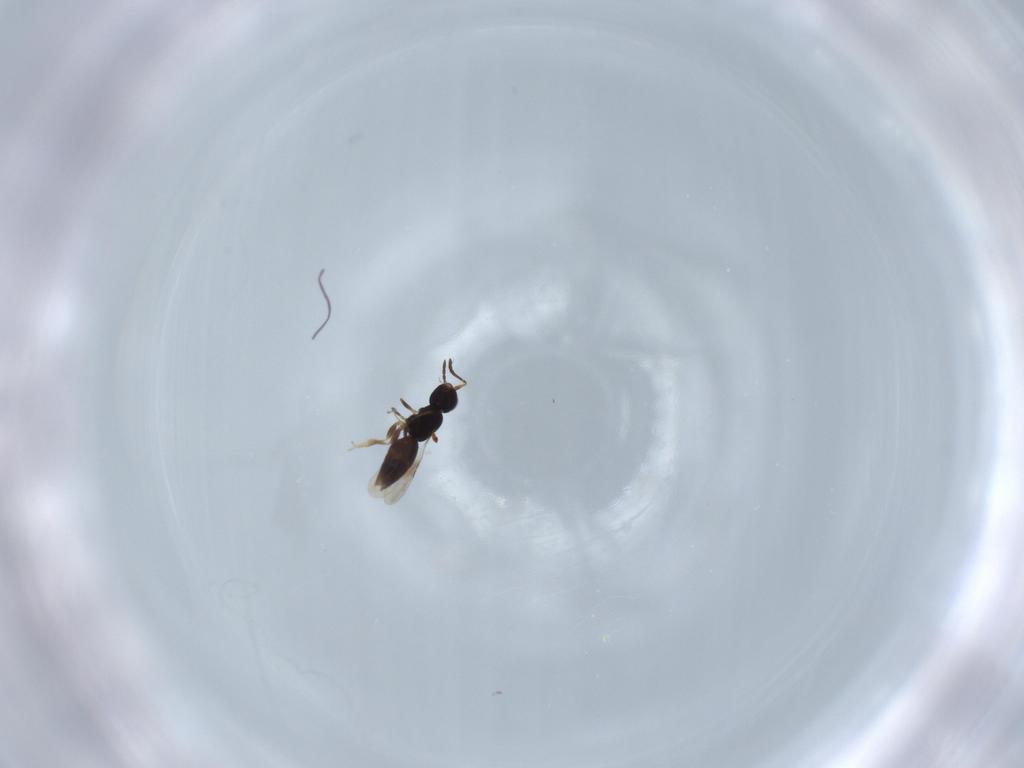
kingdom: Animalia
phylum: Arthropoda
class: Insecta
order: Hymenoptera
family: Ceraphronidae
